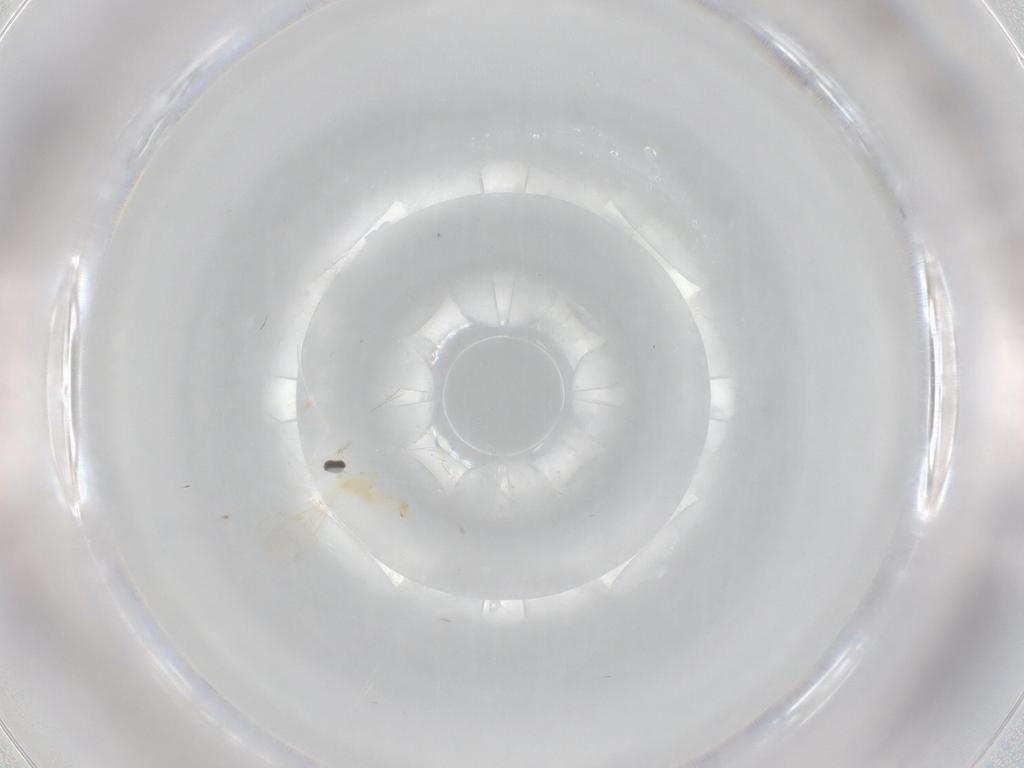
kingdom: Animalia
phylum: Arthropoda
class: Insecta
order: Diptera
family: Cecidomyiidae
